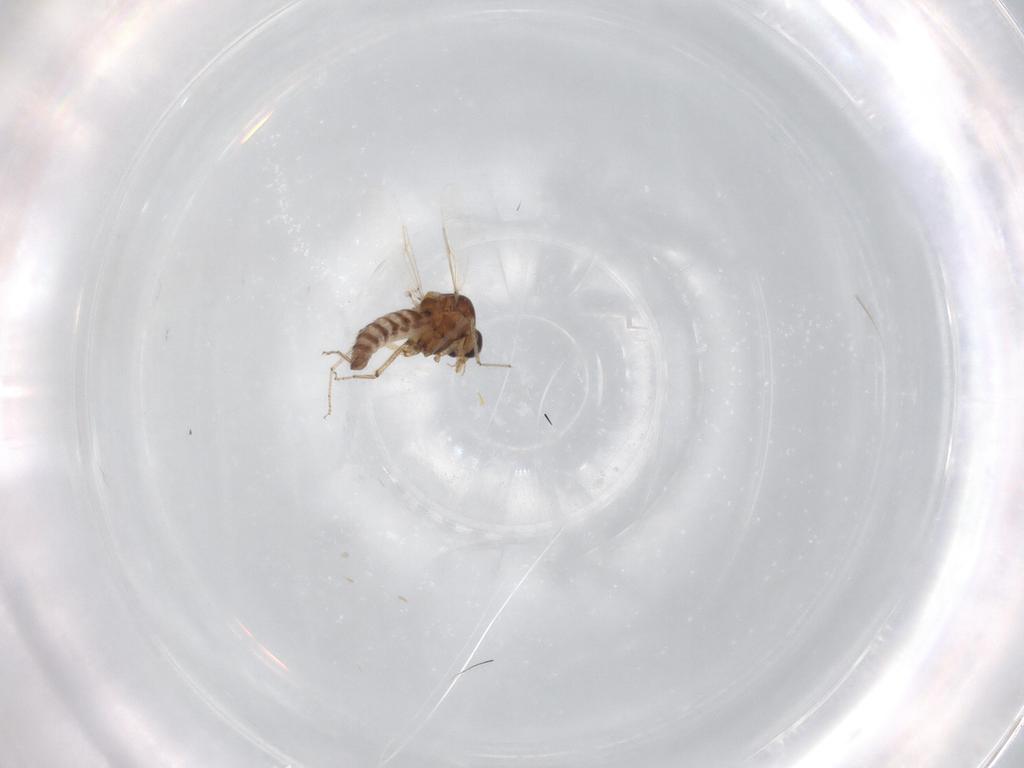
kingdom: Animalia
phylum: Arthropoda
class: Insecta
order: Diptera
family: Ceratopogonidae
